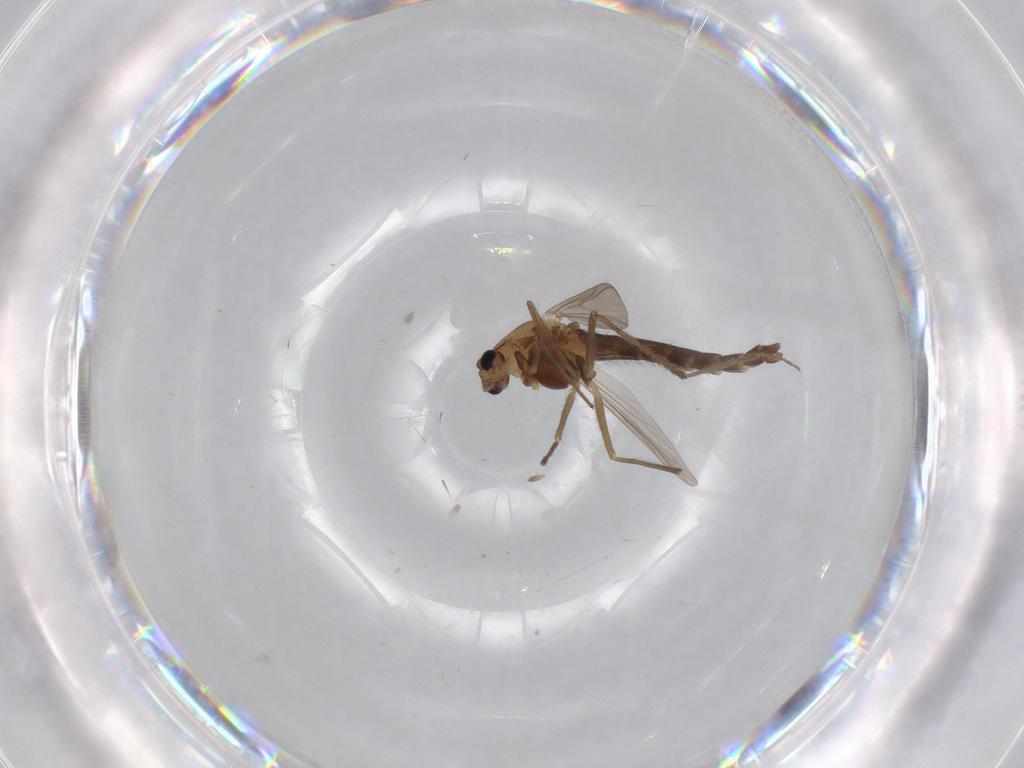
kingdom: Animalia
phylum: Arthropoda
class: Insecta
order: Diptera
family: Chironomidae
